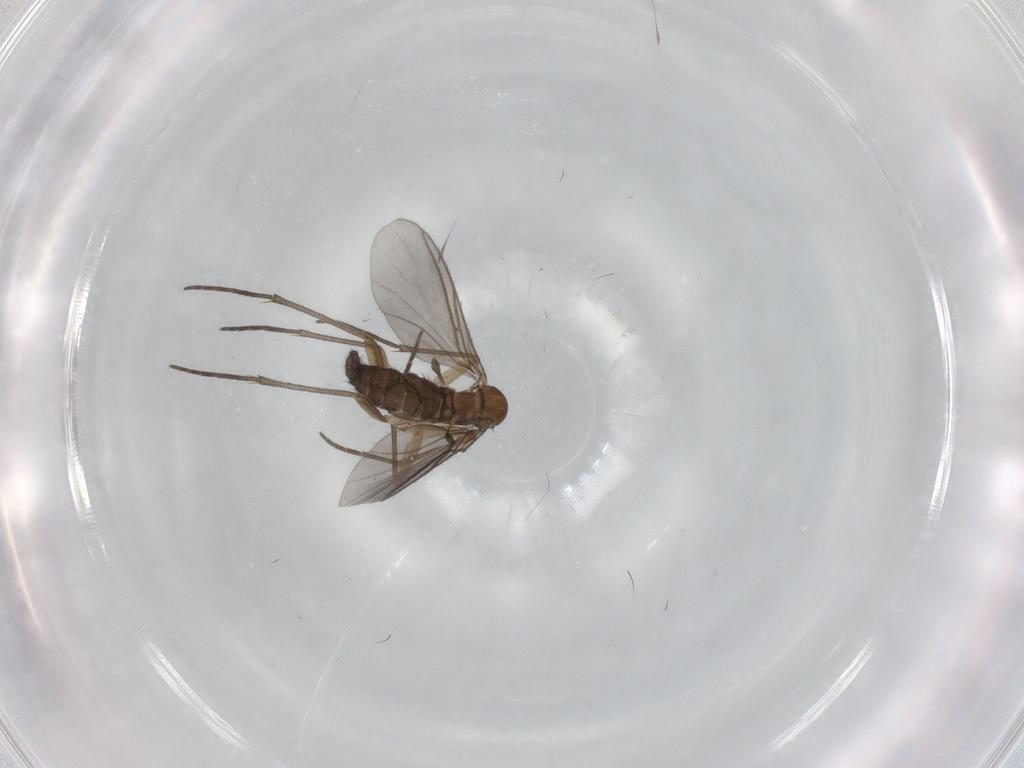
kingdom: Animalia
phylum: Arthropoda
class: Insecta
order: Diptera
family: Sciaridae
